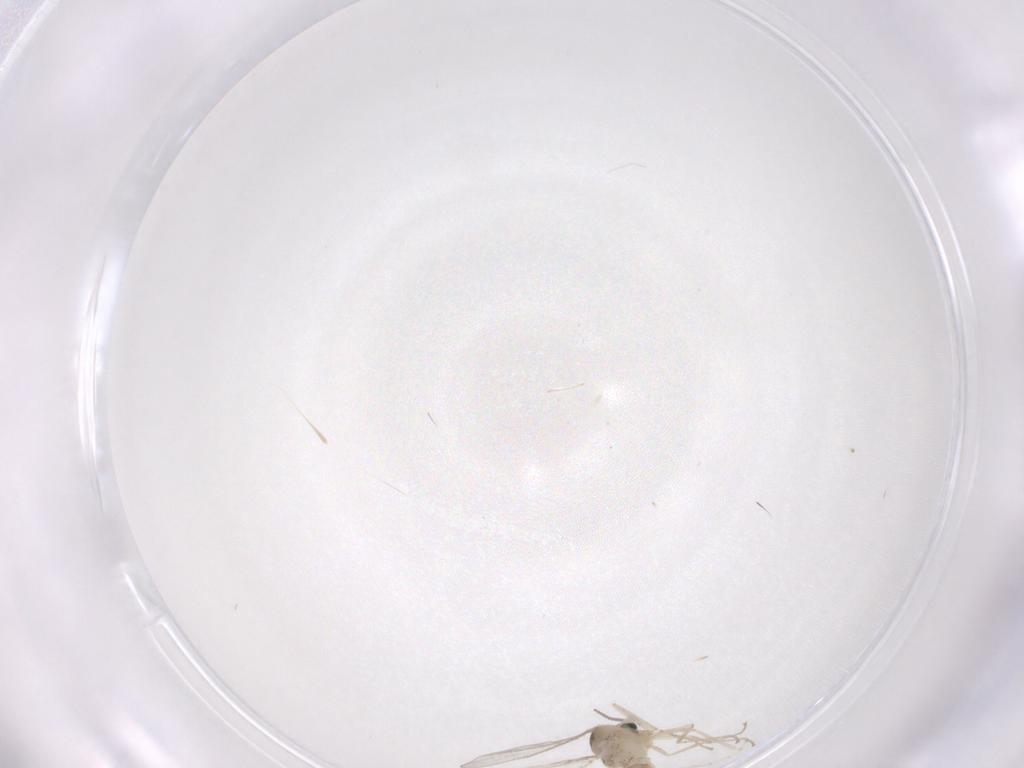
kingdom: Animalia
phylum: Arthropoda
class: Insecta
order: Diptera
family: Cecidomyiidae
